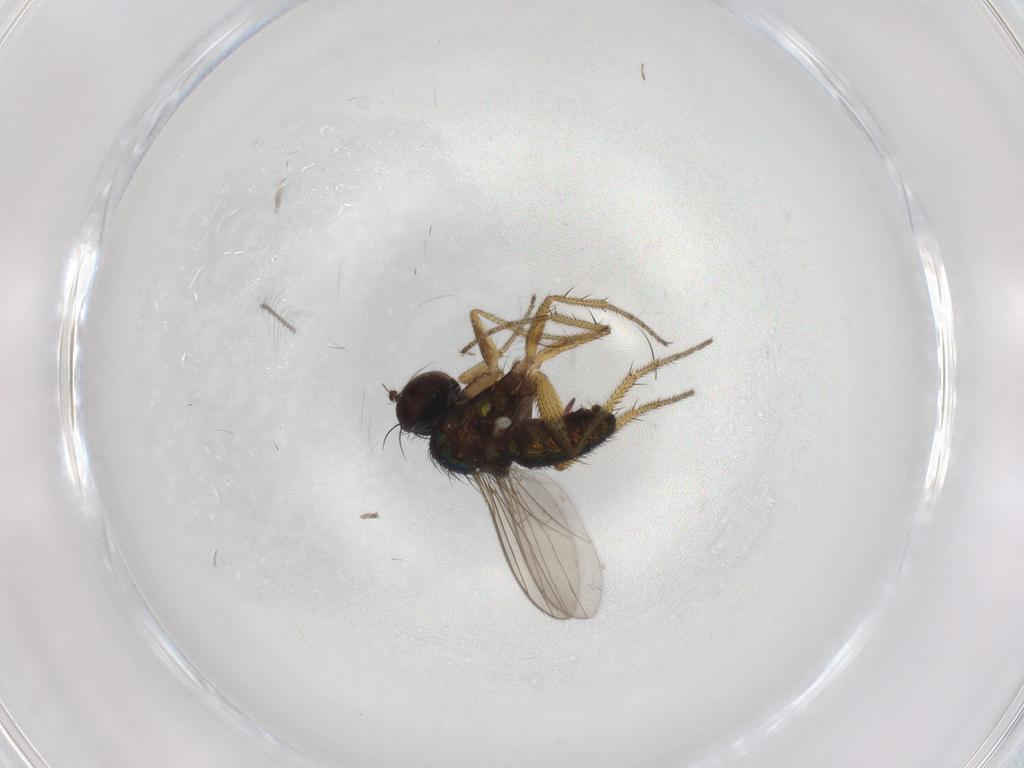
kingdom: Animalia
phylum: Arthropoda
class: Insecta
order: Diptera
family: Chironomidae
